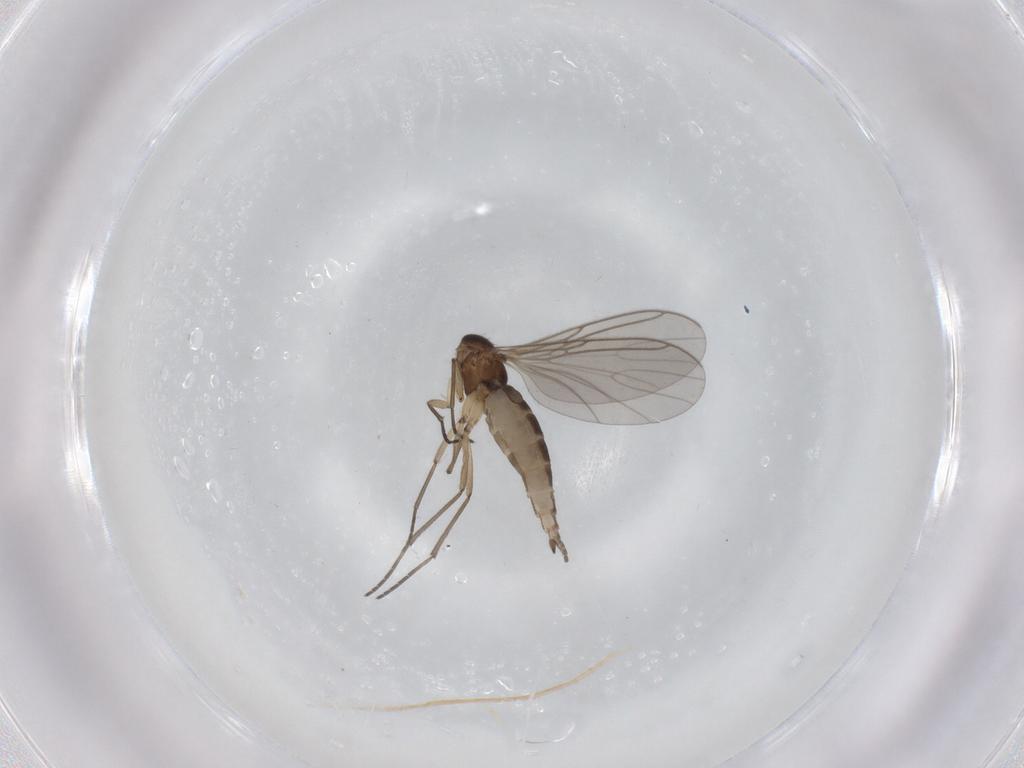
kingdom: Animalia
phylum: Arthropoda
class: Insecta
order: Diptera
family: Sciaridae
